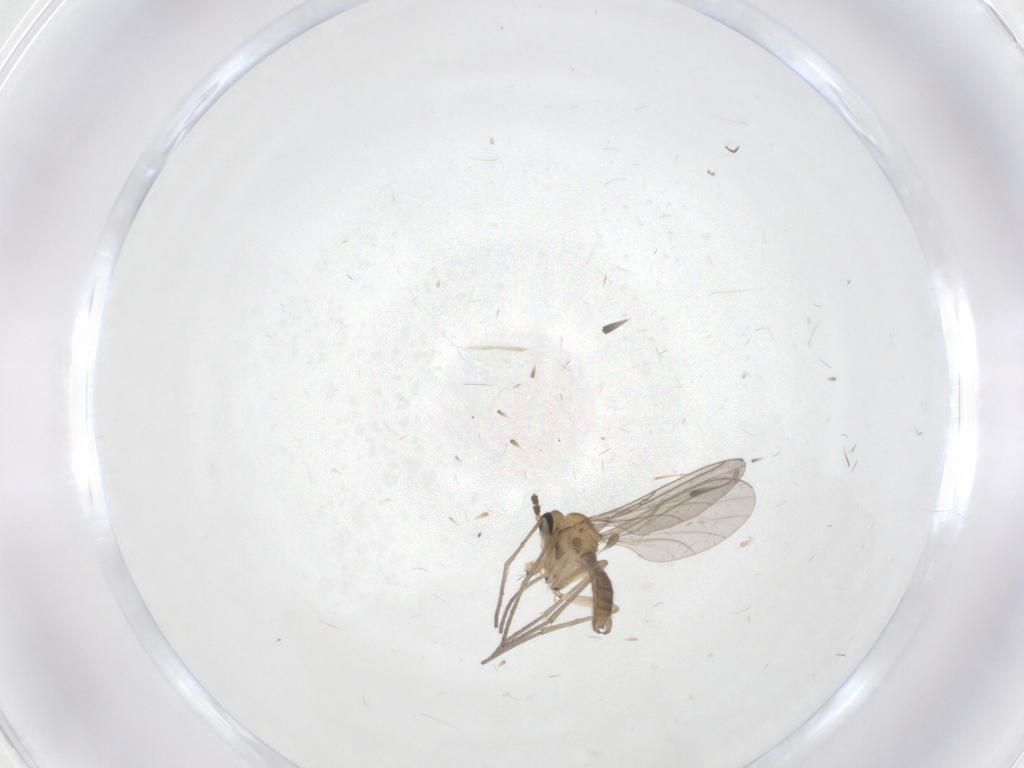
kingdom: Animalia
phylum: Arthropoda
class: Insecta
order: Diptera
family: Sciaridae
